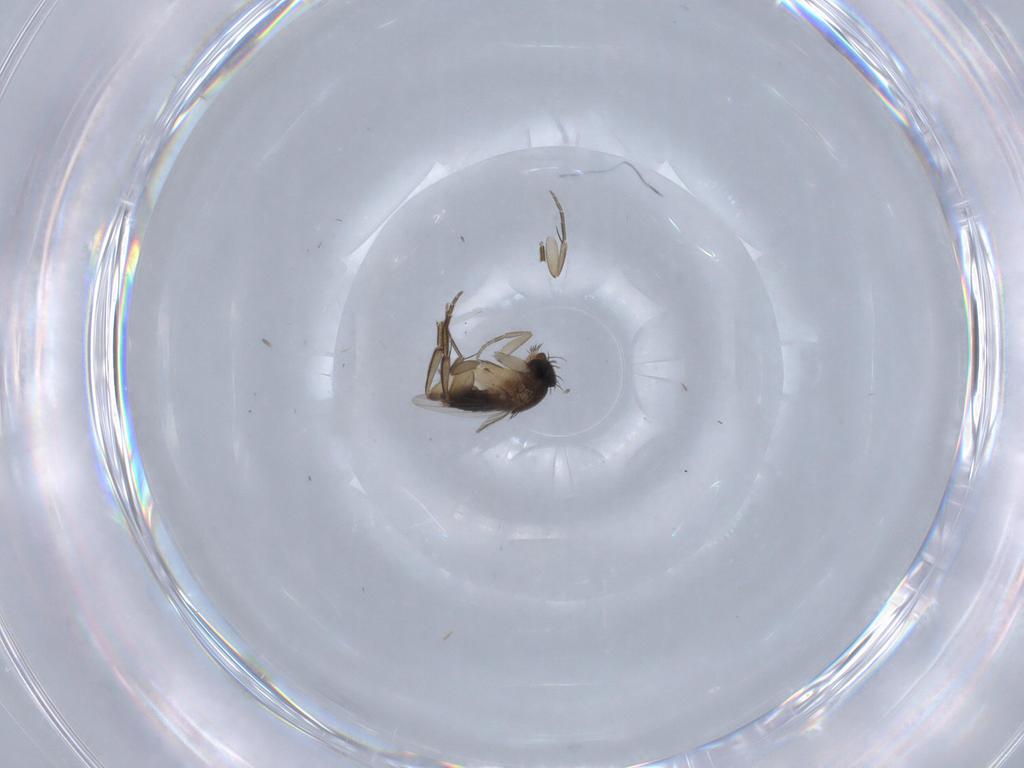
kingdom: Animalia
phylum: Arthropoda
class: Insecta
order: Diptera
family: Phoridae
